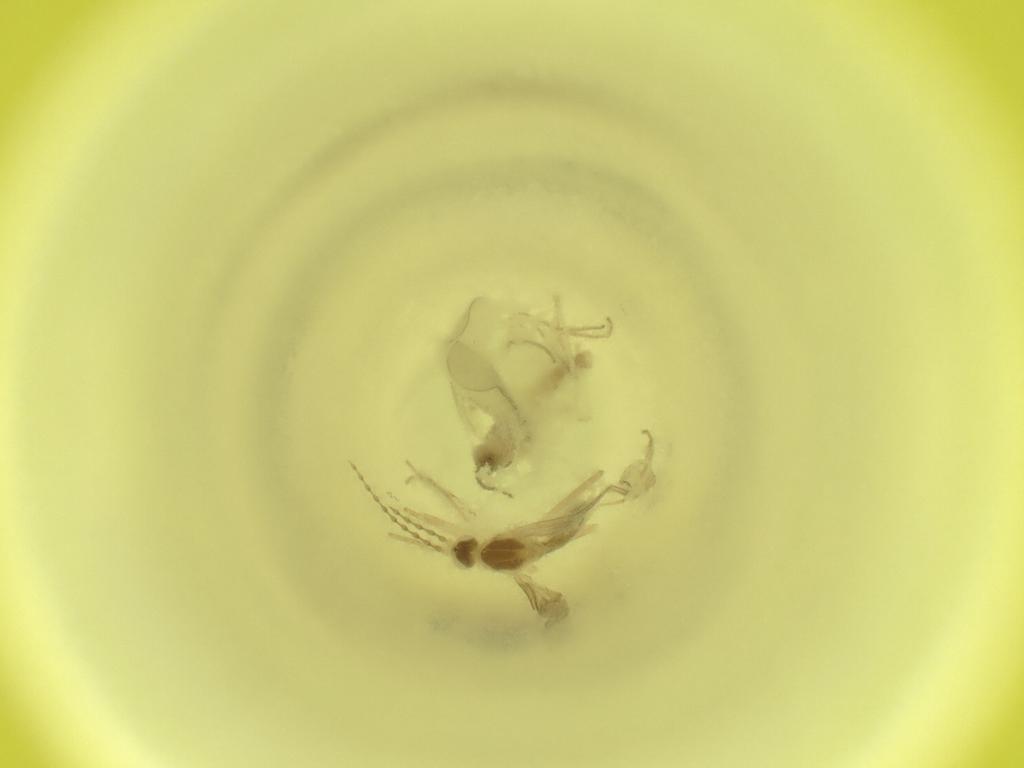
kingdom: Animalia
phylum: Arthropoda
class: Insecta
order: Diptera
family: Cecidomyiidae
